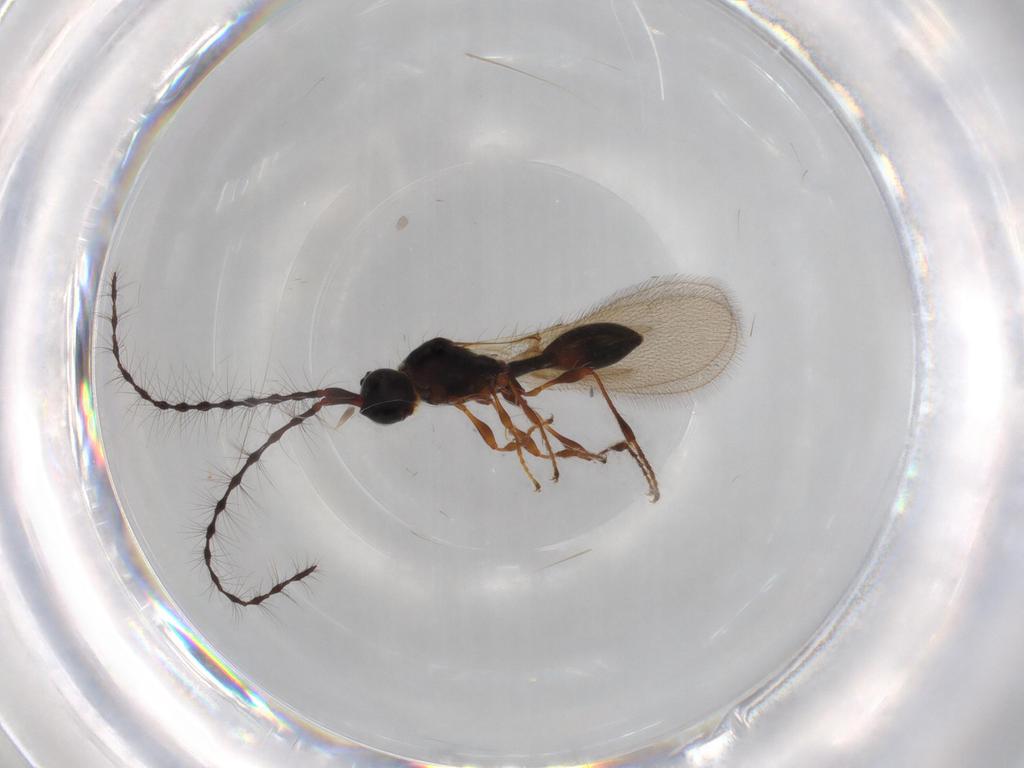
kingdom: Animalia
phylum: Arthropoda
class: Insecta
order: Hymenoptera
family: Diapriidae
